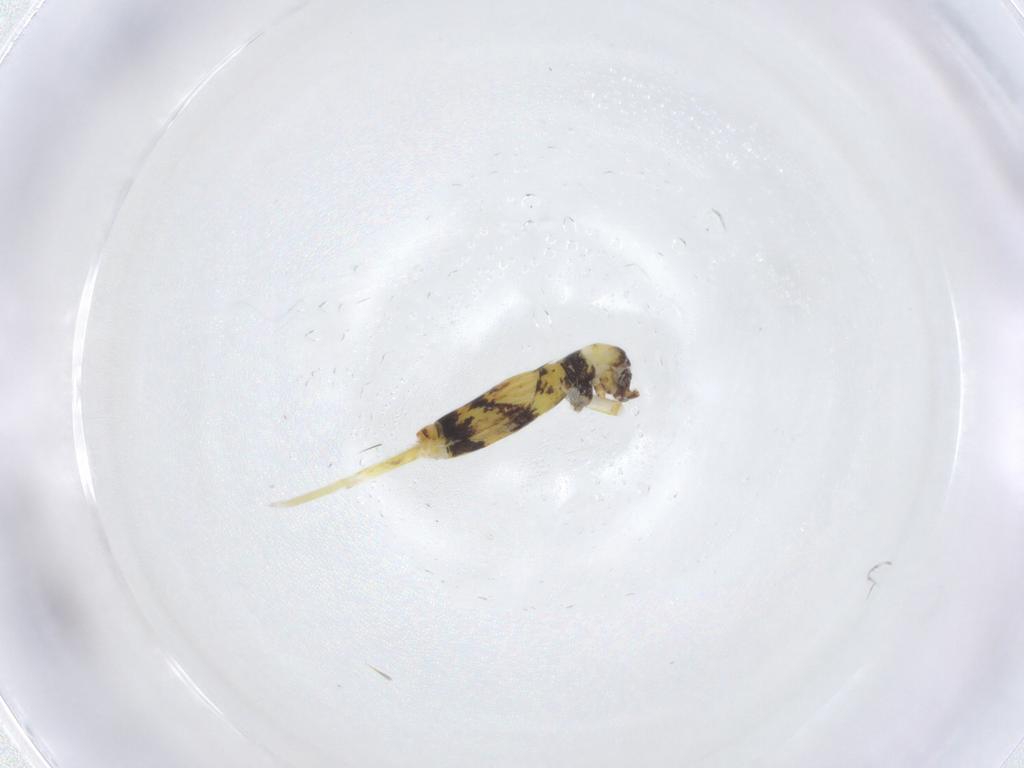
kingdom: Animalia
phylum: Arthropoda
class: Collembola
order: Entomobryomorpha
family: Entomobryidae
